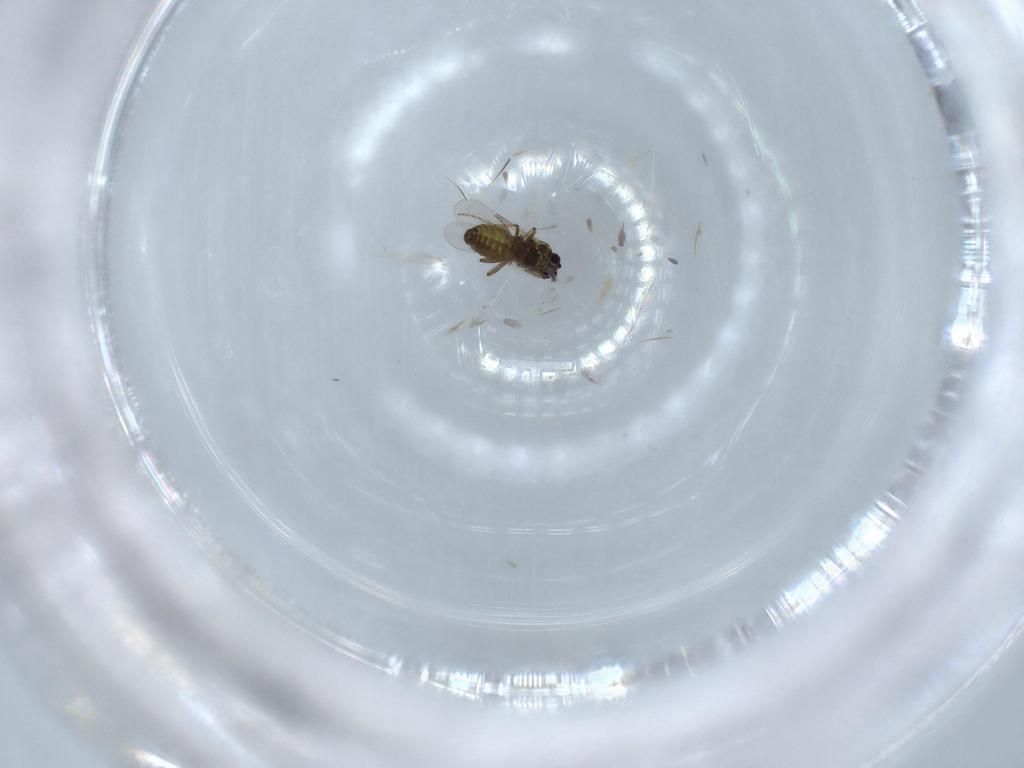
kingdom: Animalia
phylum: Arthropoda
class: Insecta
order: Diptera
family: Ceratopogonidae
